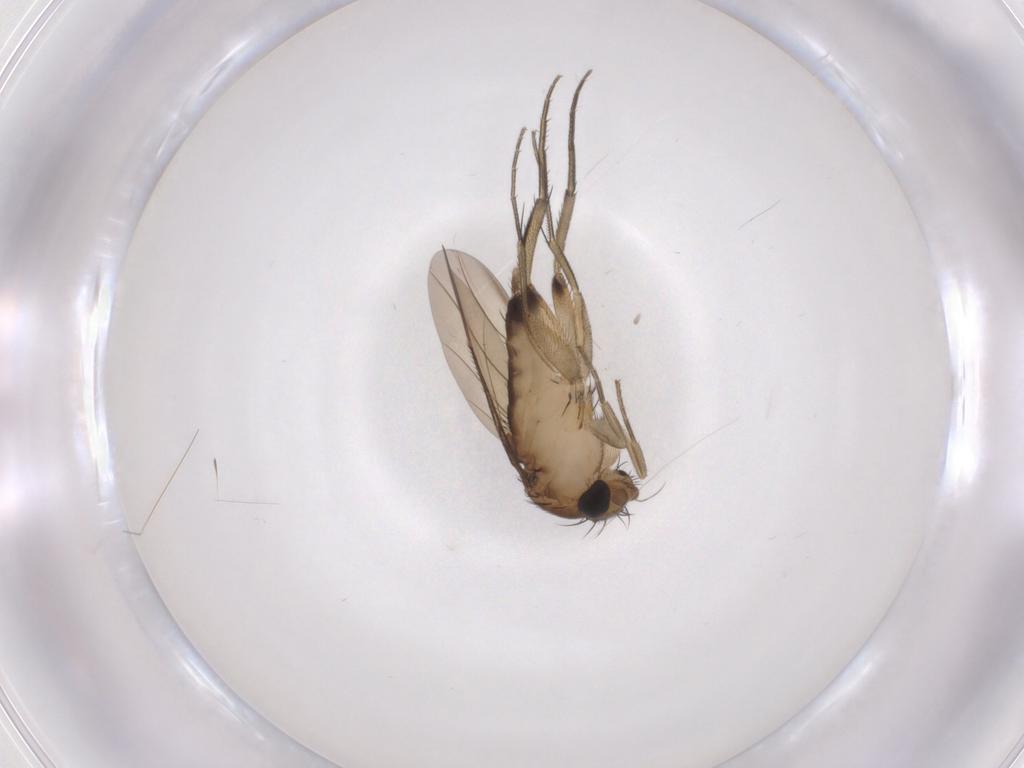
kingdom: Animalia
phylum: Arthropoda
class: Insecta
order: Diptera
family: Phoridae
